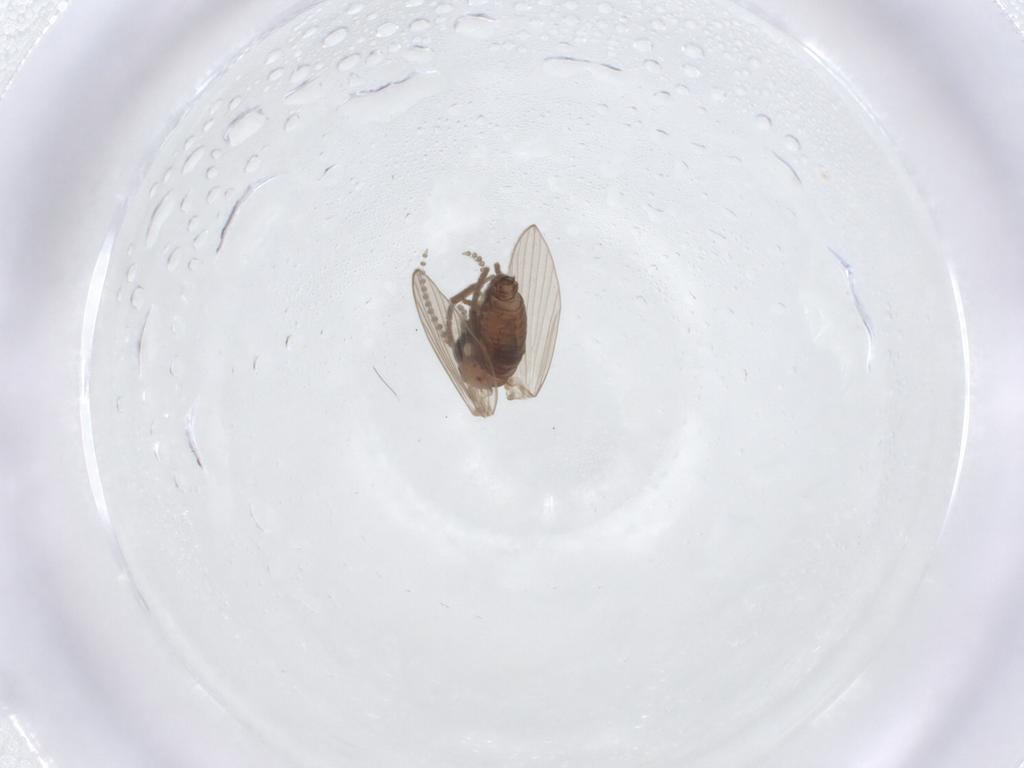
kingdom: Animalia
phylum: Arthropoda
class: Insecta
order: Diptera
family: Psychodidae
